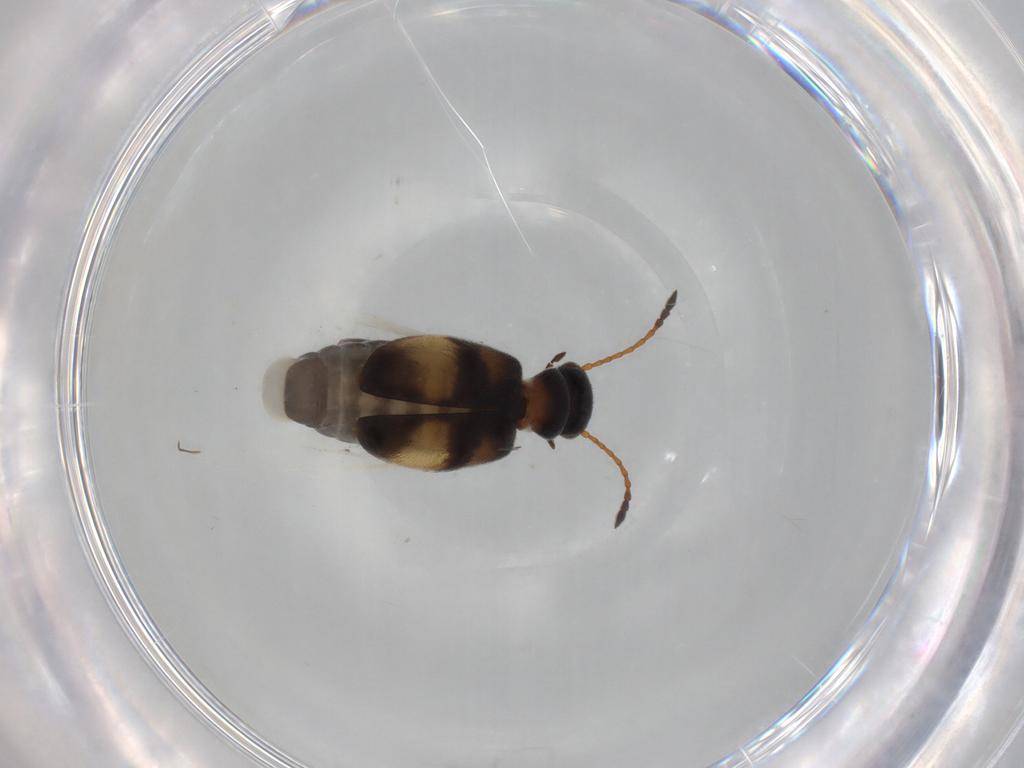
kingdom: Animalia
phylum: Arthropoda
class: Insecta
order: Coleoptera
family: Anthicidae
